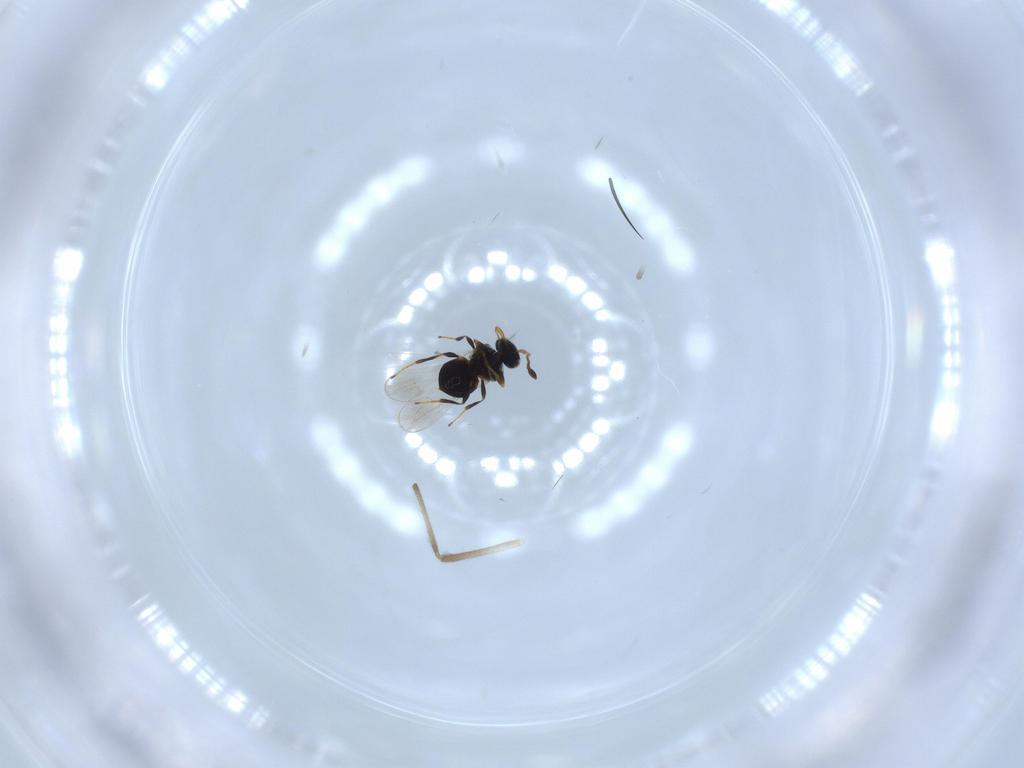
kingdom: Animalia
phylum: Arthropoda
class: Insecta
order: Hymenoptera
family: Platygastridae
